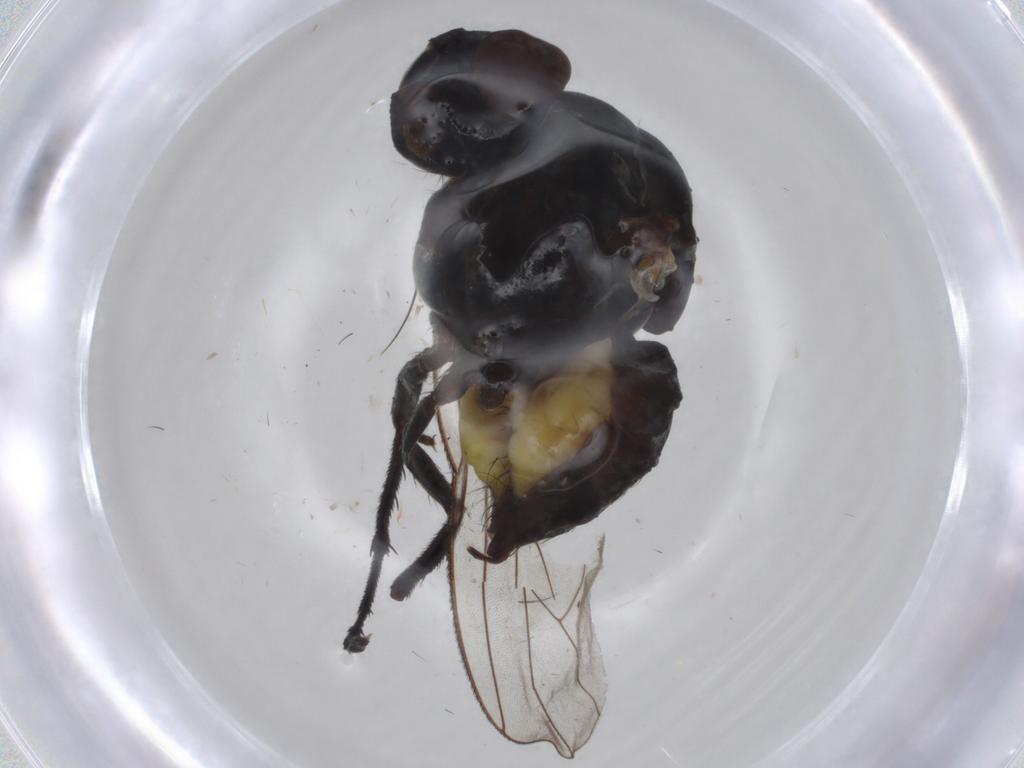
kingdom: Animalia
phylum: Arthropoda
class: Insecta
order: Diptera
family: Anthomyiidae
